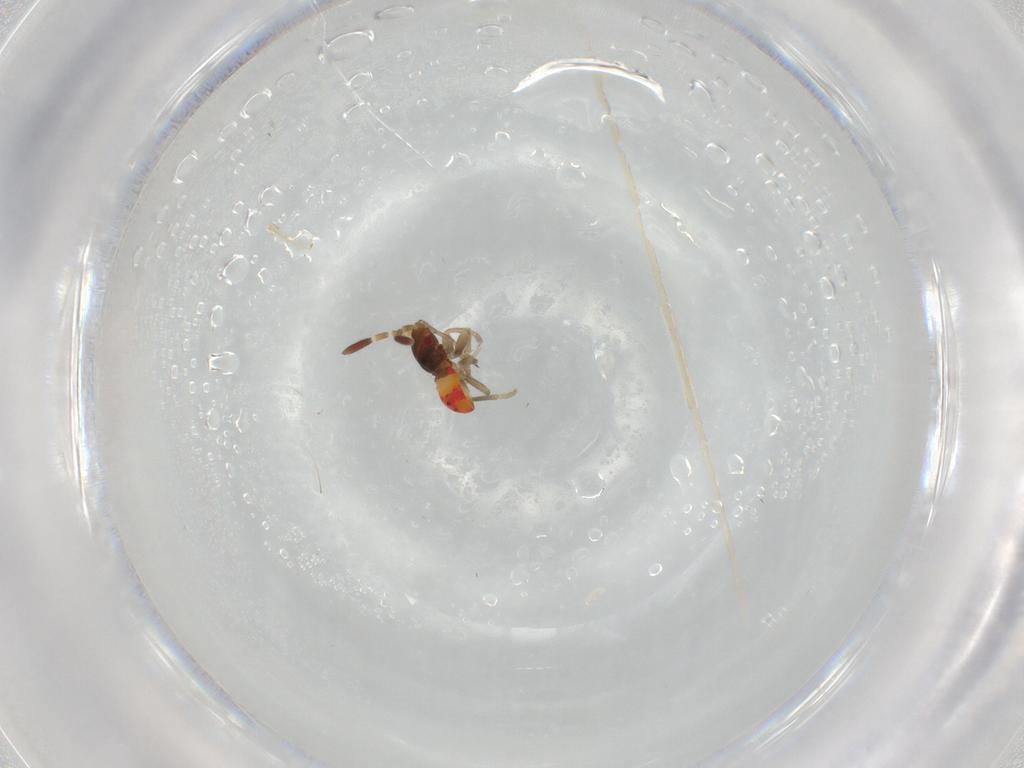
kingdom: Animalia
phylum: Arthropoda
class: Insecta
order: Hemiptera
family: Rhyparochromidae
